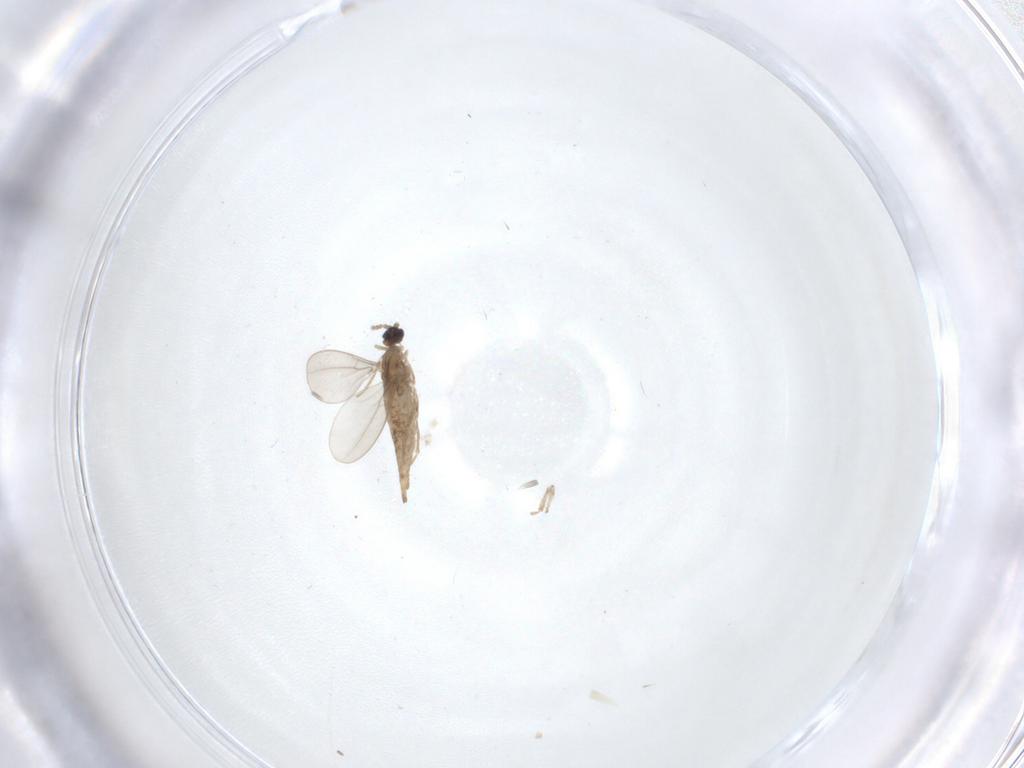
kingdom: Animalia
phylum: Arthropoda
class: Insecta
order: Diptera
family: Cecidomyiidae
